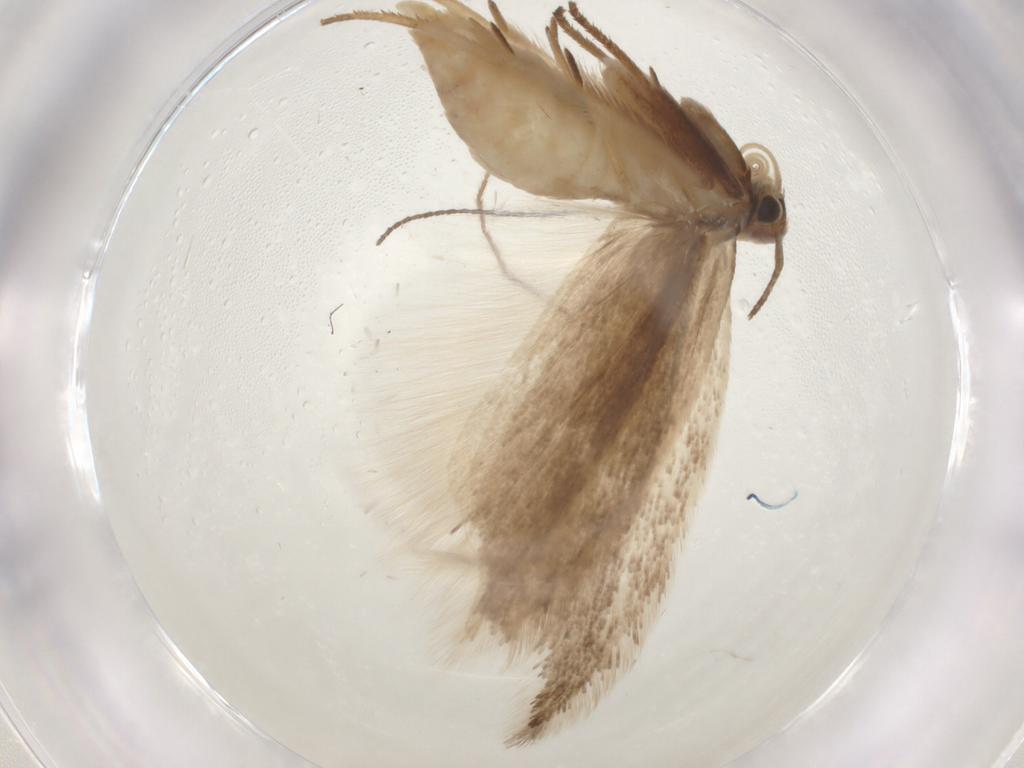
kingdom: Animalia
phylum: Arthropoda
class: Insecta
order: Lepidoptera
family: Gelechiidae
